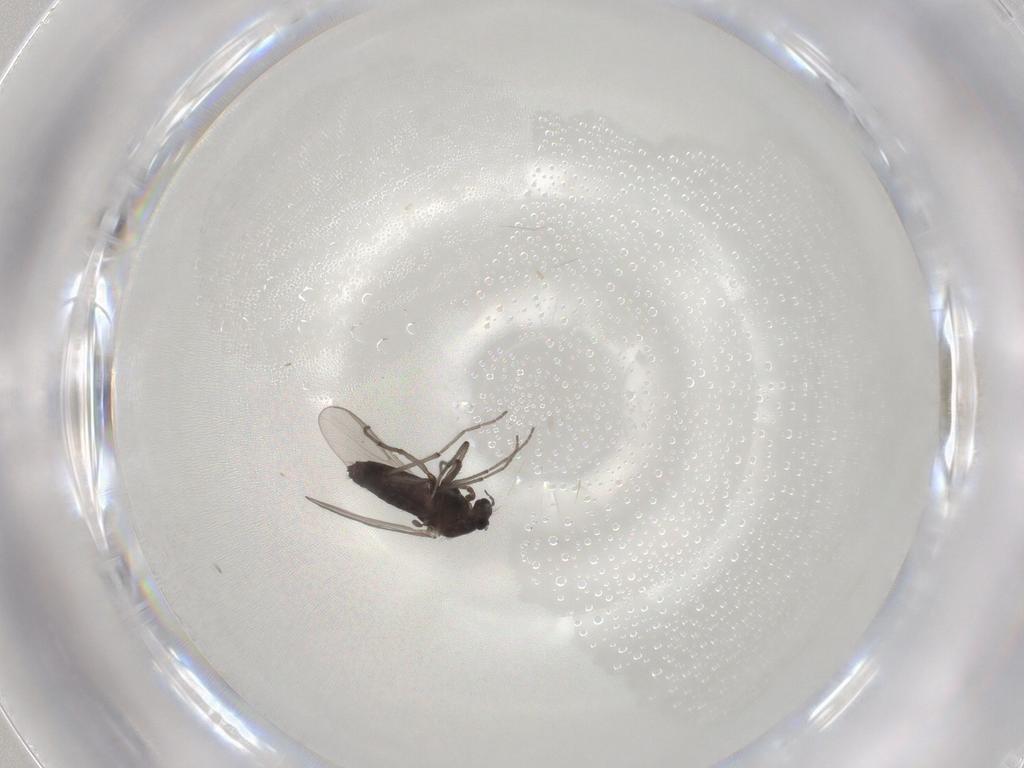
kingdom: Animalia
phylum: Arthropoda
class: Insecta
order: Diptera
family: Chironomidae
